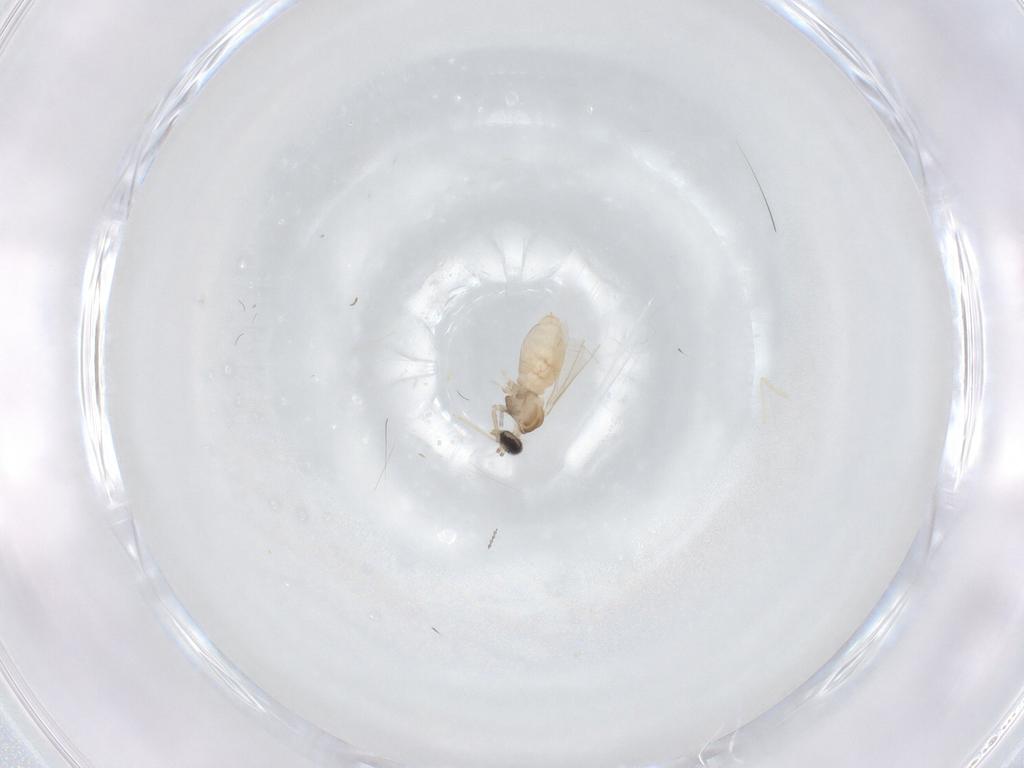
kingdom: Animalia
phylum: Arthropoda
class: Insecta
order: Diptera
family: Cecidomyiidae
